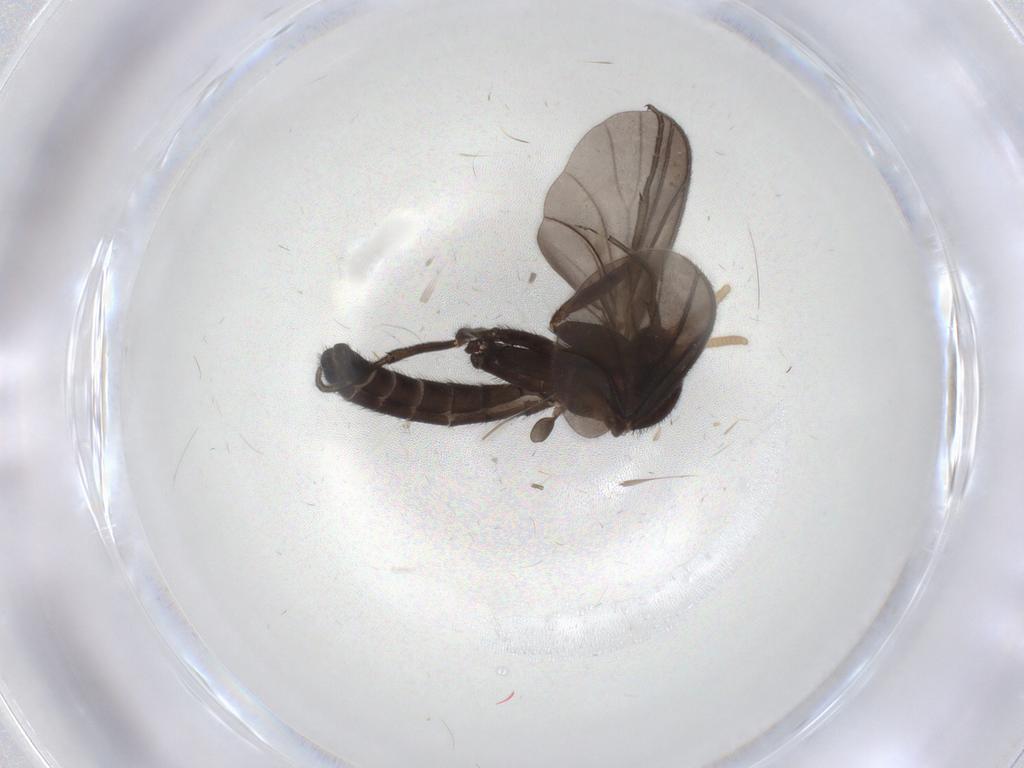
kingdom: Animalia
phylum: Arthropoda
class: Insecta
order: Diptera
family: Mycetophilidae
